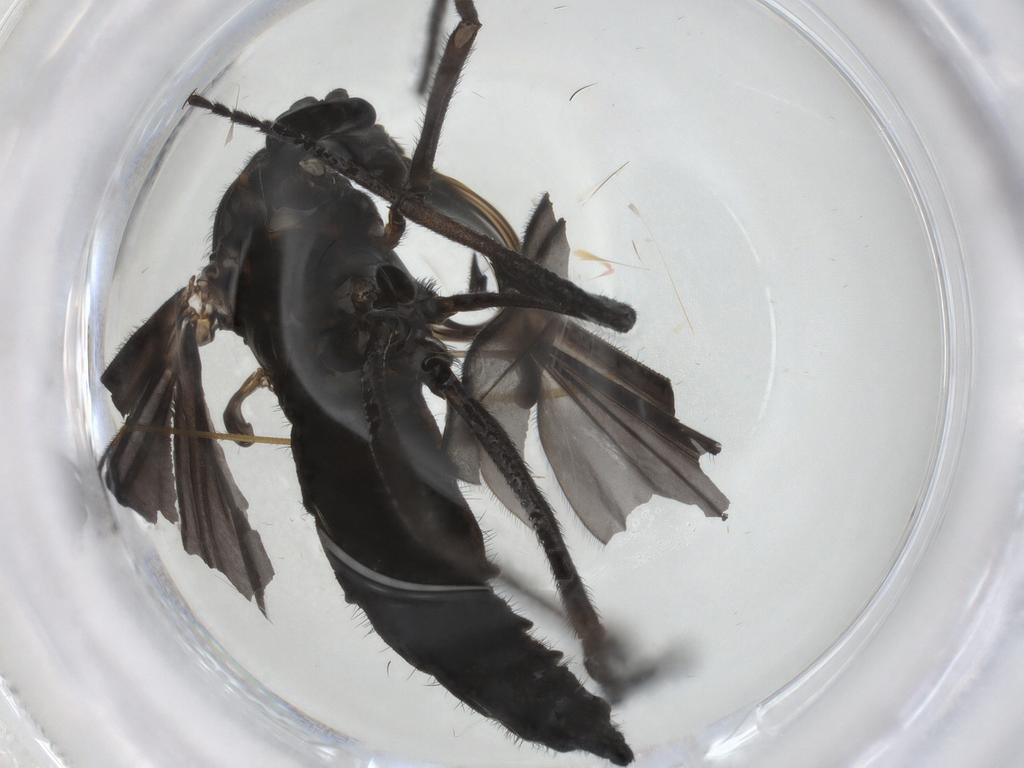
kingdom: Animalia
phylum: Arthropoda
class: Insecta
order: Diptera
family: Sciaridae
